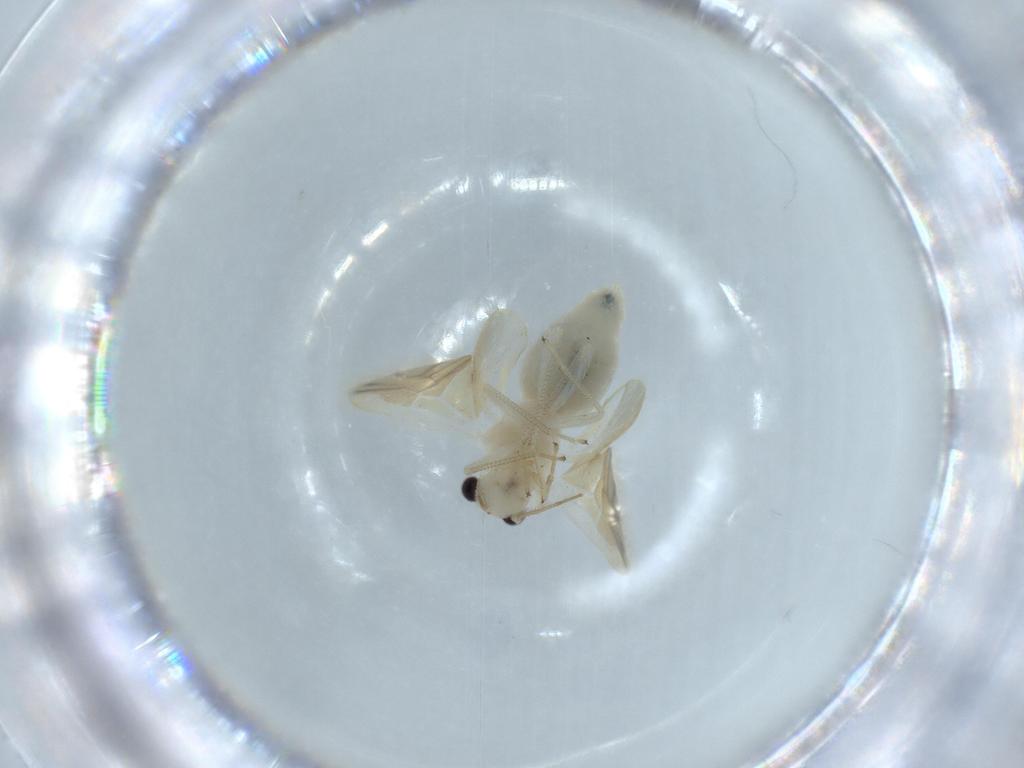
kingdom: Animalia
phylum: Arthropoda
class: Insecta
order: Psocodea
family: Caeciliusidae
